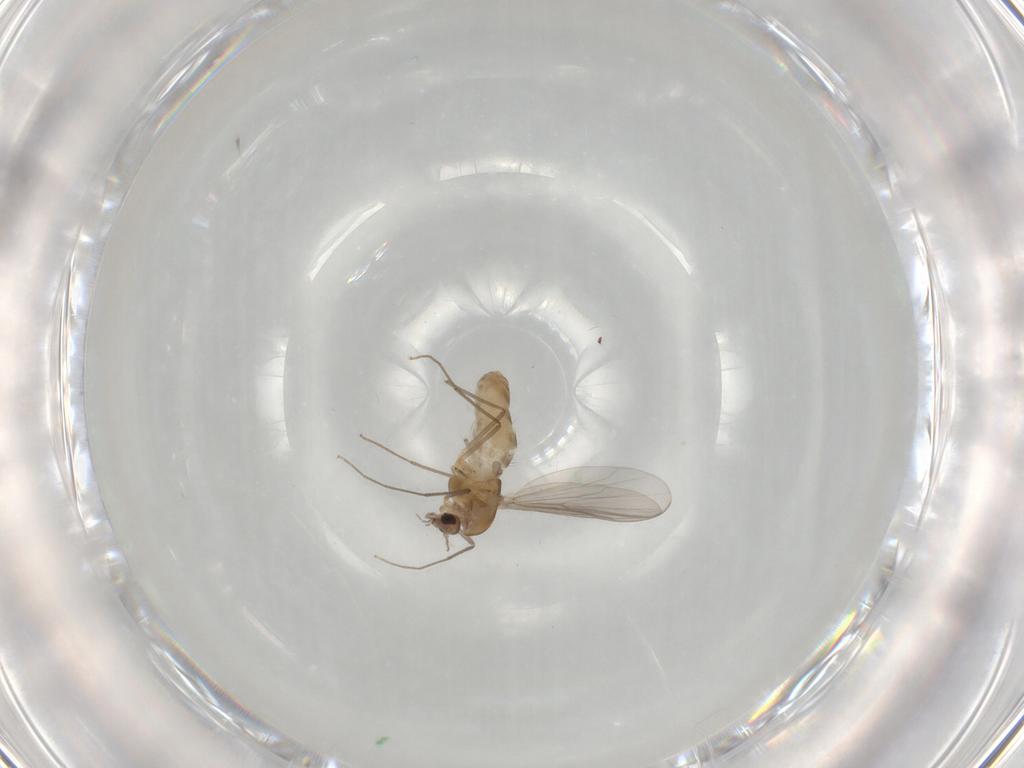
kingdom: Animalia
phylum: Arthropoda
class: Insecta
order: Diptera
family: Chironomidae
